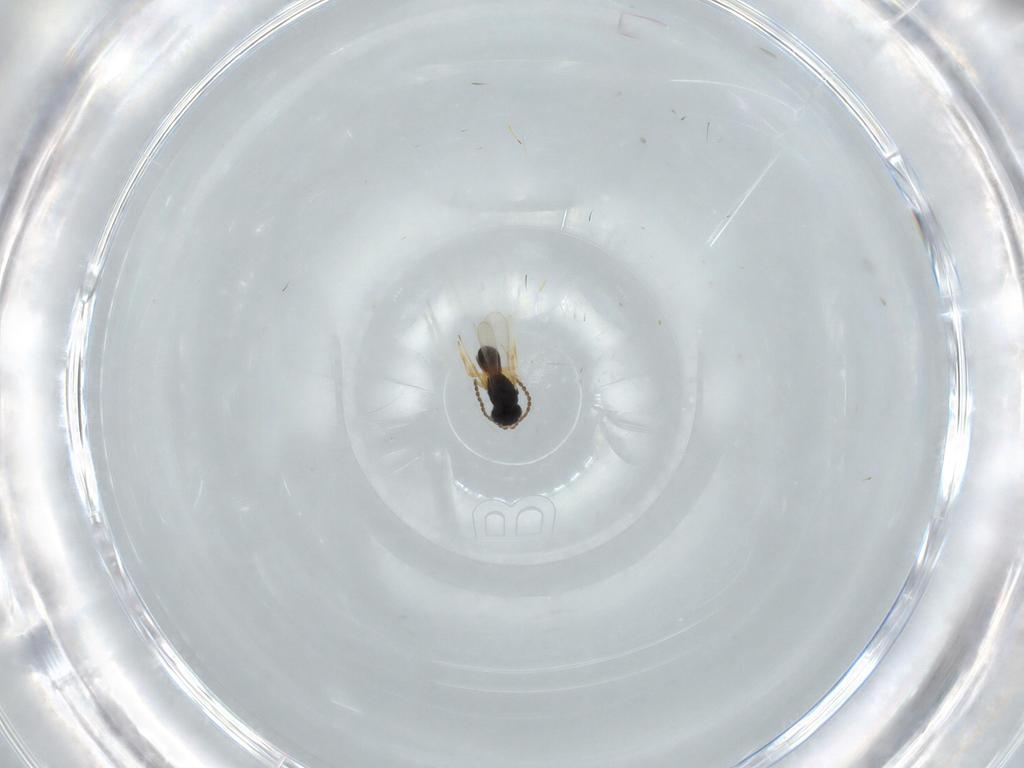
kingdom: Animalia
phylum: Arthropoda
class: Insecta
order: Hymenoptera
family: Scelionidae
